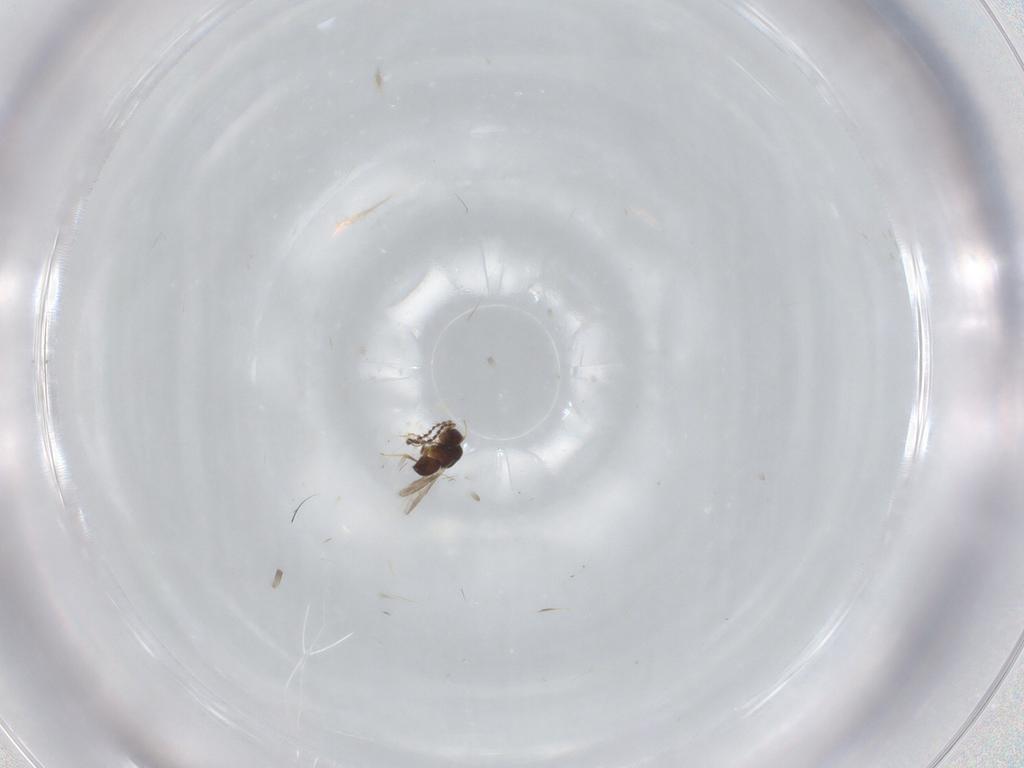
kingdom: Animalia
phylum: Arthropoda
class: Insecta
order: Hymenoptera
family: Ceraphronidae
